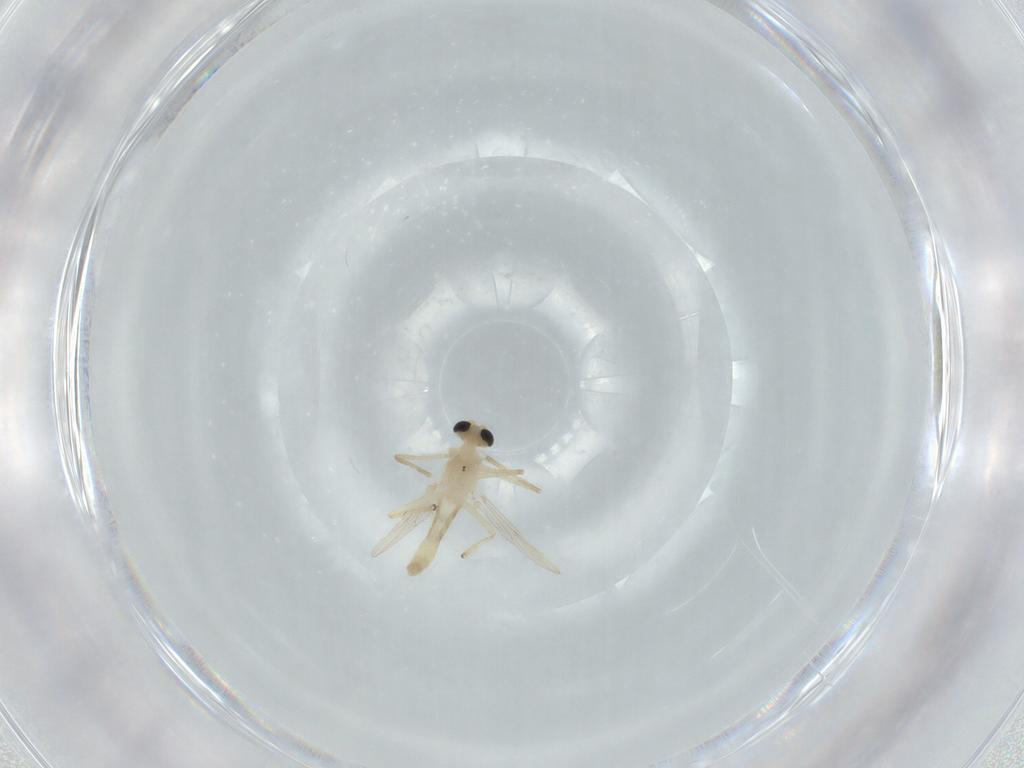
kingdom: Animalia
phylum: Arthropoda
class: Insecta
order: Diptera
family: Chironomidae
